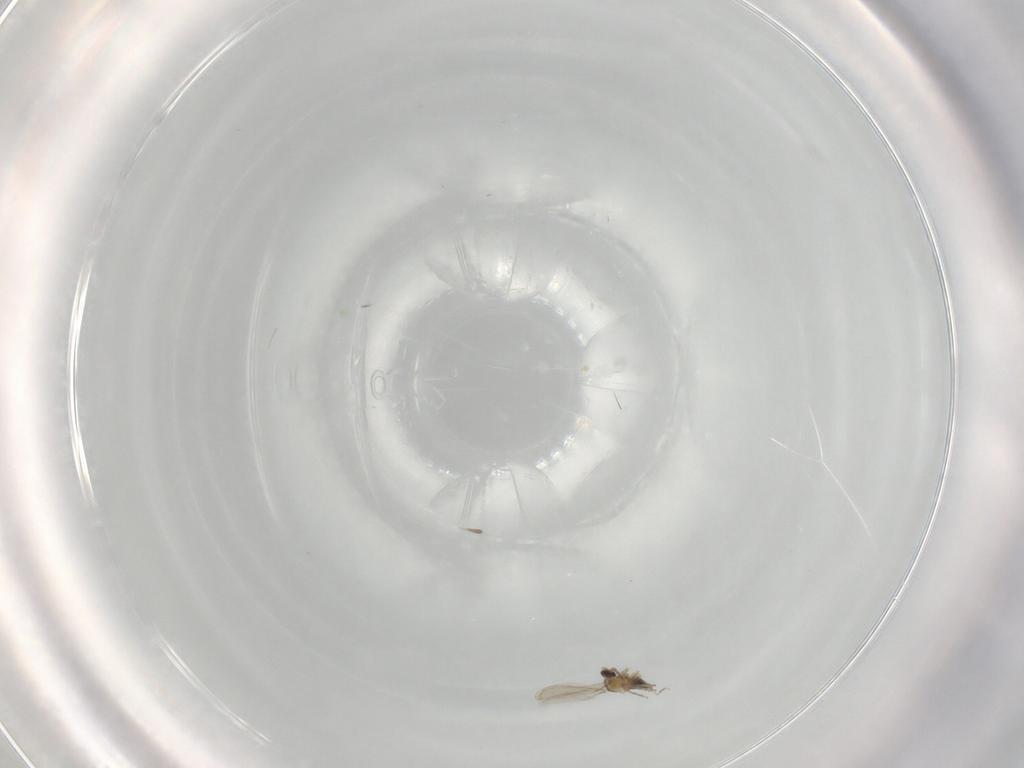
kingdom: Animalia
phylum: Arthropoda
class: Insecta
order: Diptera
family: Cecidomyiidae
